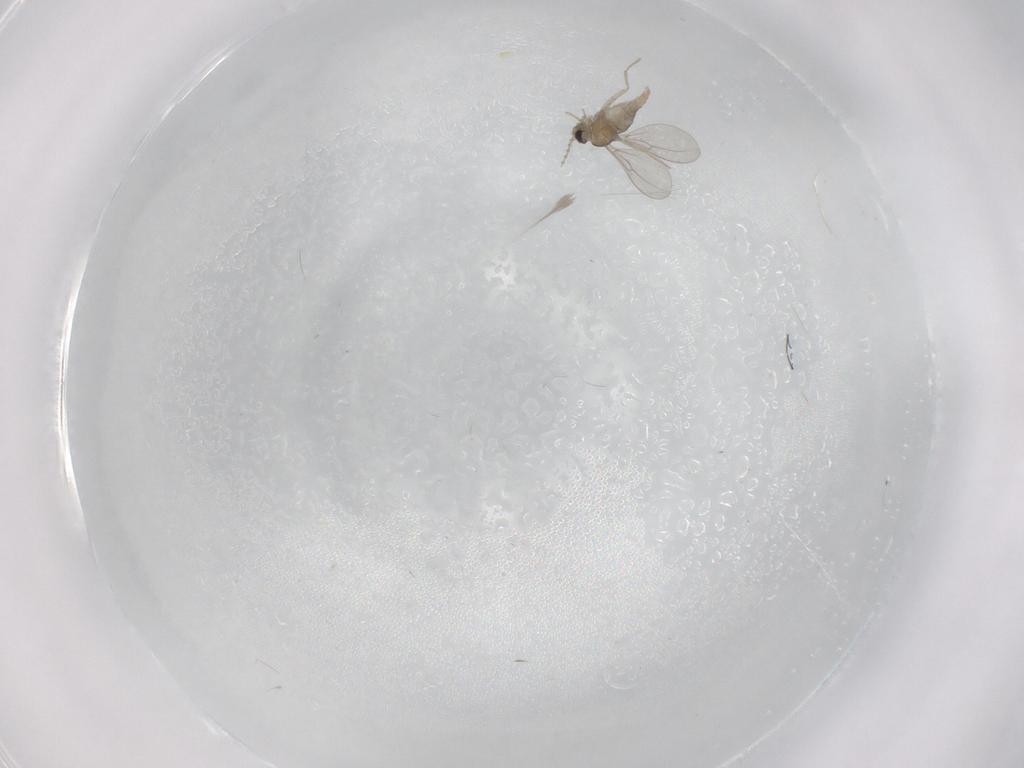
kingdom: Animalia
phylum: Arthropoda
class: Insecta
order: Diptera
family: Cecidomyiidae
